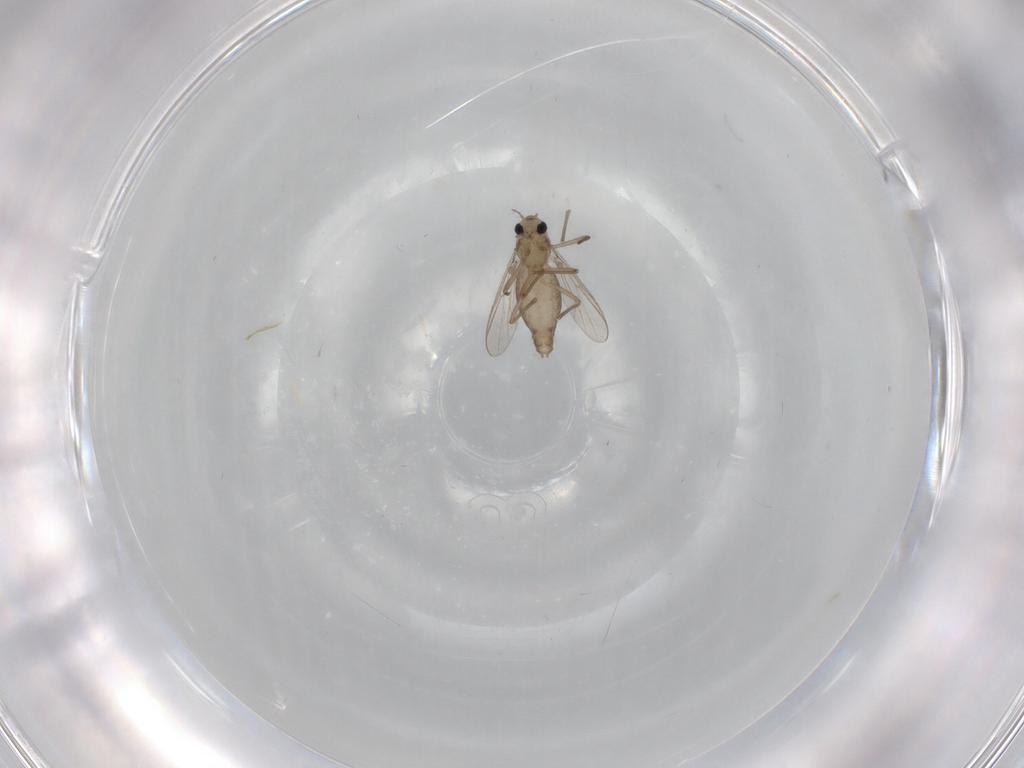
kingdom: Animalia
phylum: Arthropoda
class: Insecta
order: Diptera
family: Chironomidae
